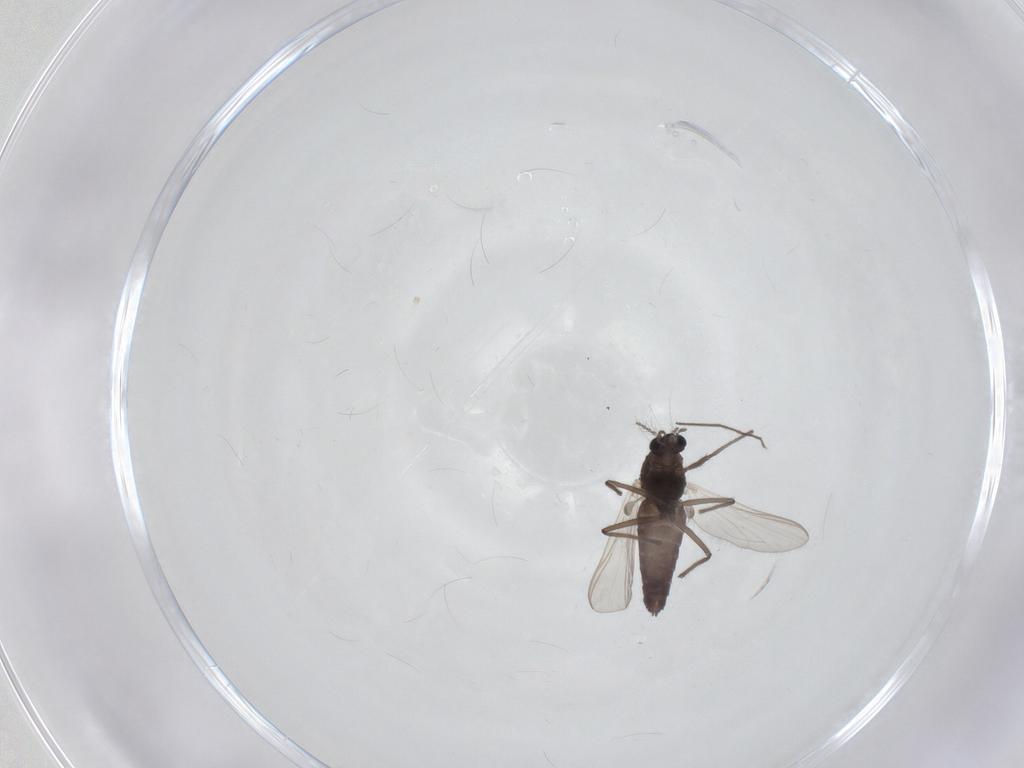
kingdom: Animalia
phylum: Arthropoda
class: Insecta
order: Diptera
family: Chironomidae
